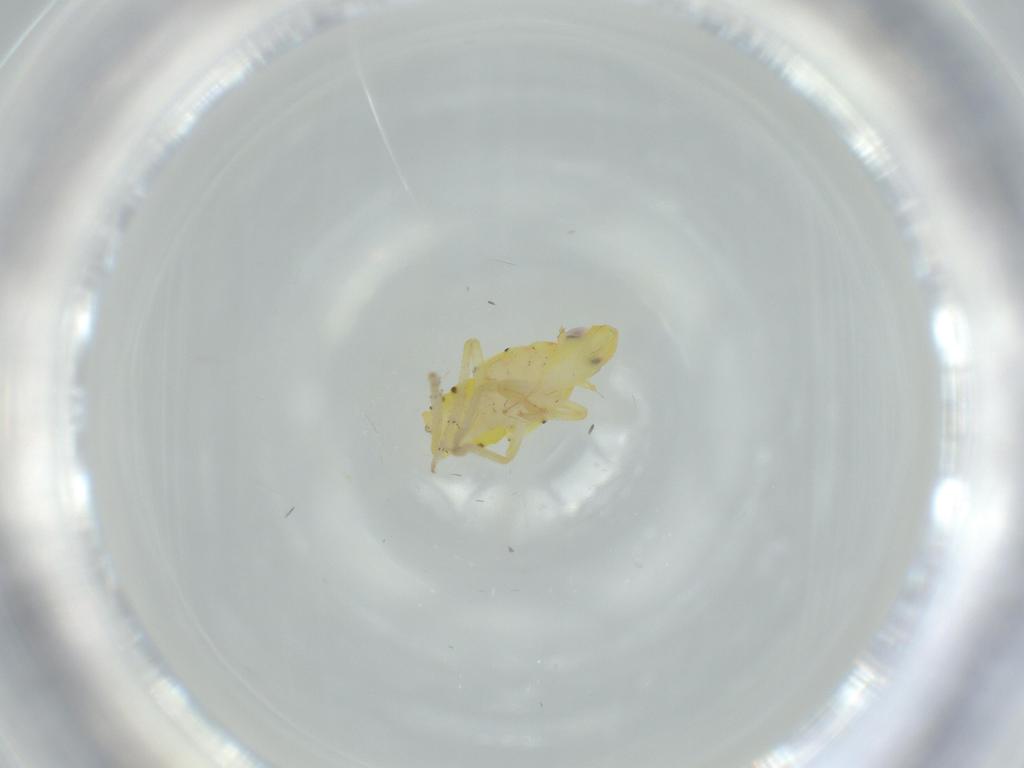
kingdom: Animalia
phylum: Arthropoda
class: Insecta
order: Hemiptera
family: Tropiduchidae
